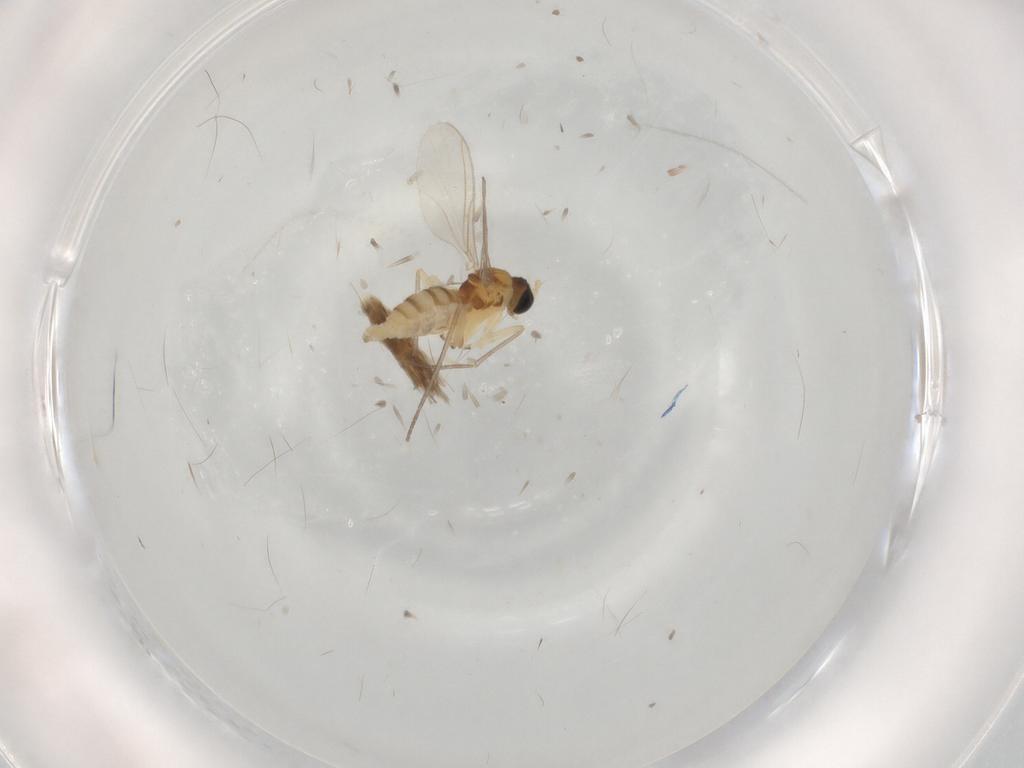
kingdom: Animalia
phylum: Arthropoda
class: Insecta
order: Diptera
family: Sciaridae
